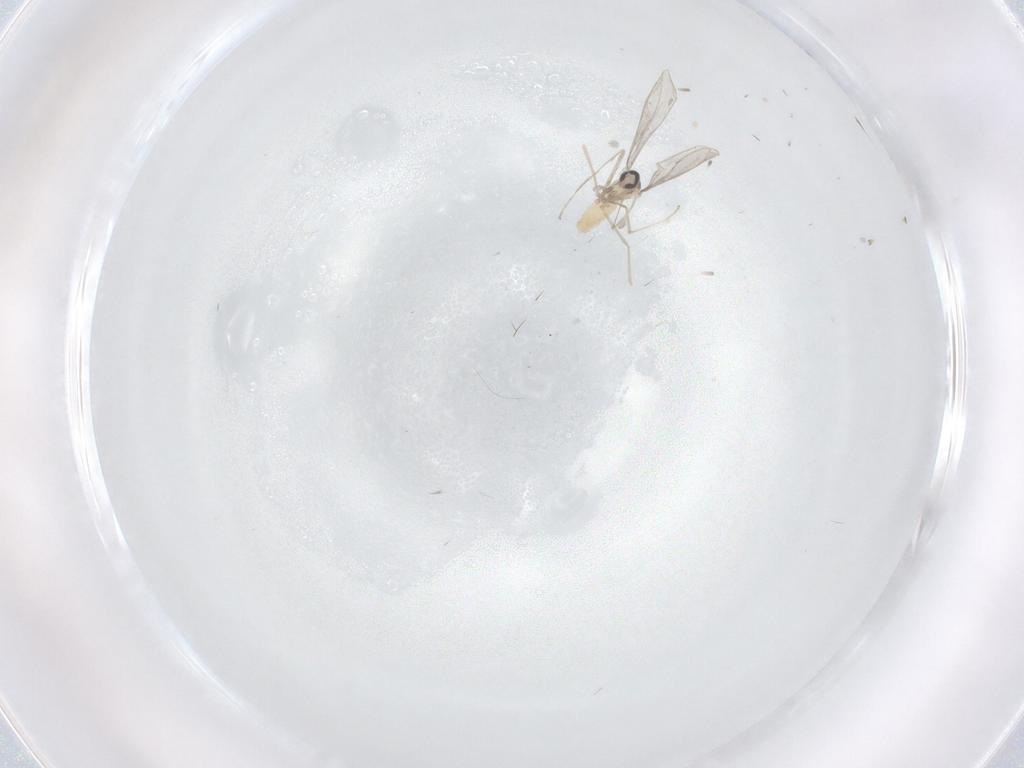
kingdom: Animalia
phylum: Arthropoda
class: Insecta
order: Diptera
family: Cecidomyiidae
